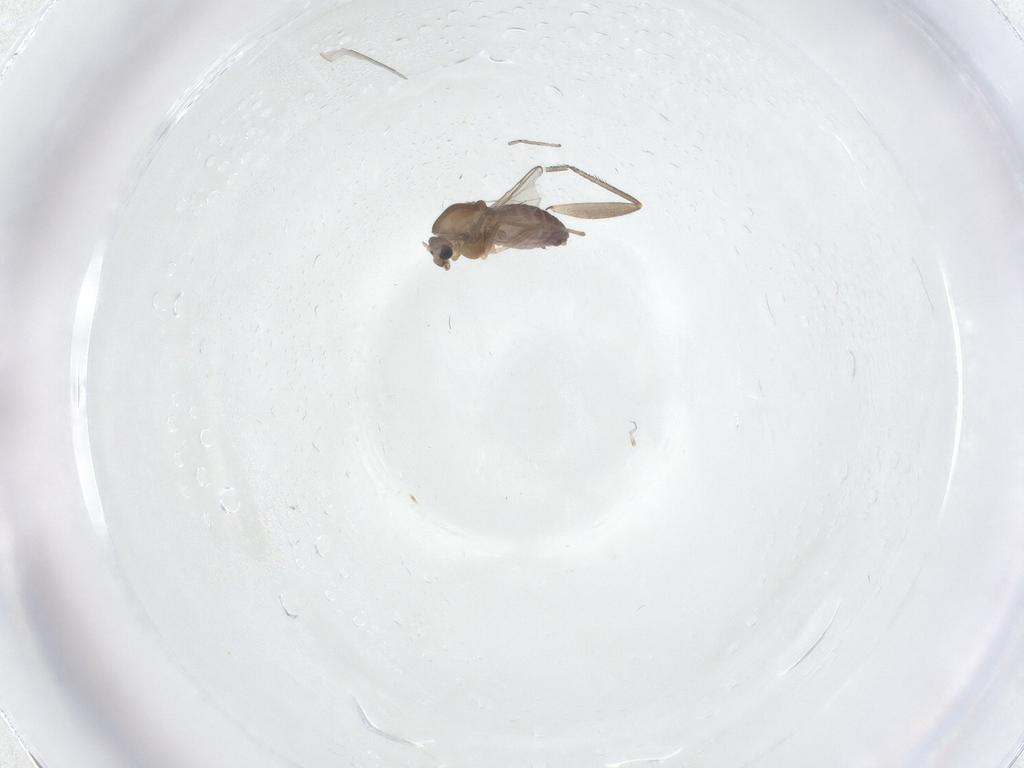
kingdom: Animalia
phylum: Arthropoda
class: Insecta
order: Diptera
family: Sciaridae
